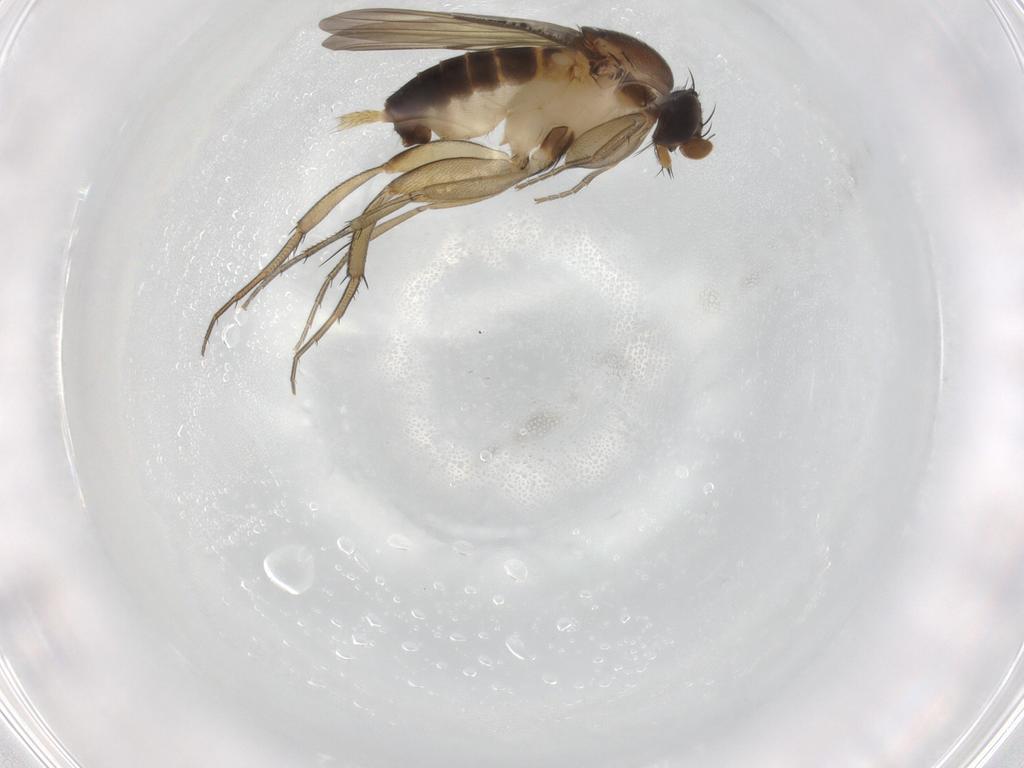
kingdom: Animalia
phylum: Arthropoda
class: Insecta
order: Diptera
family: Phoridae
